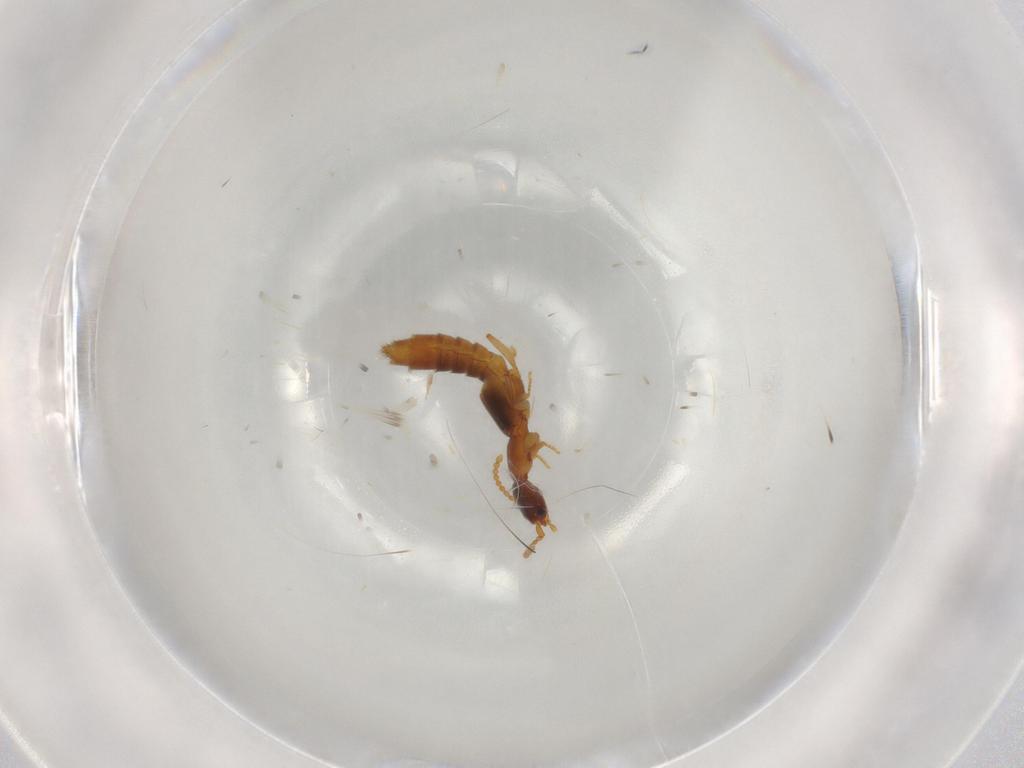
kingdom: Animalia
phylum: Arthropoda
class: Insecta
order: Coleoptera
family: Staphylinidae
